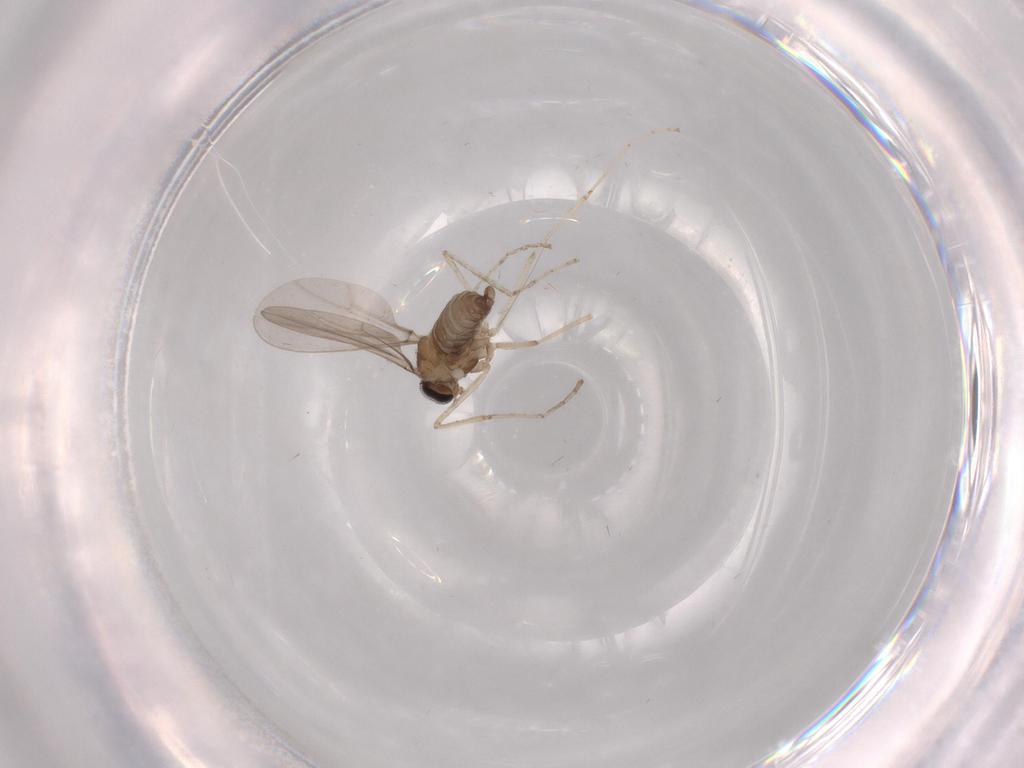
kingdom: Animalia
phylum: Arthropoda
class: Insecta
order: Diptera
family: Cecidomyiidae
